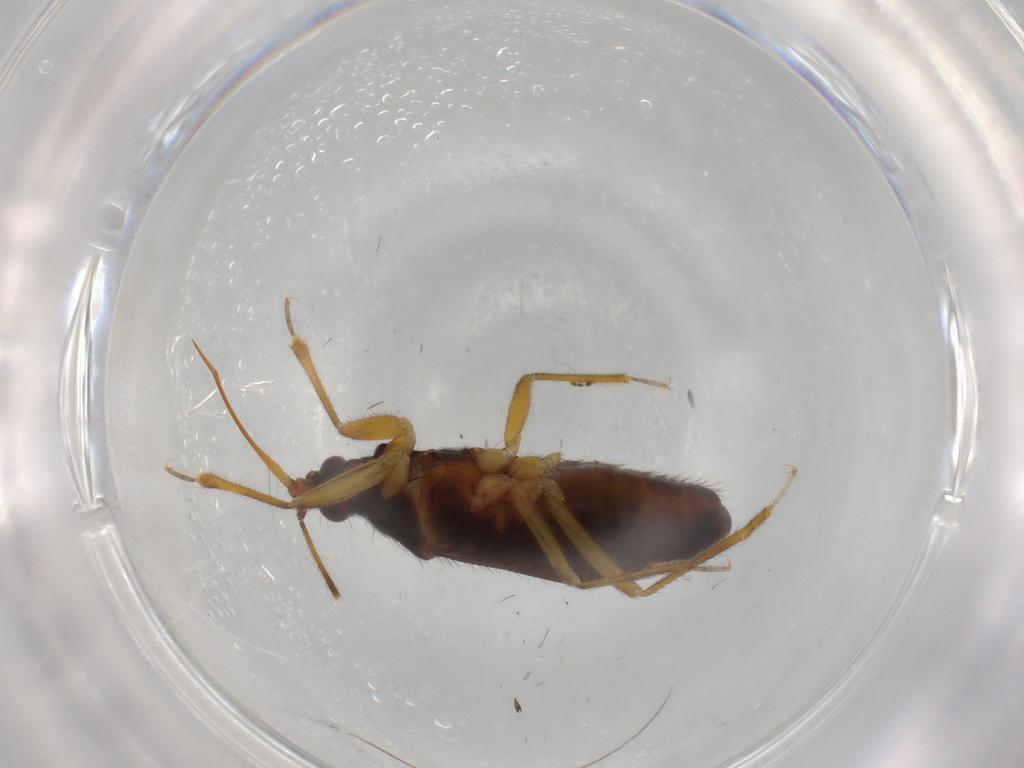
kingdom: Animalia
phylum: Arthropoda
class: Insecta
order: Hemiptera
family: Anthocoridae
